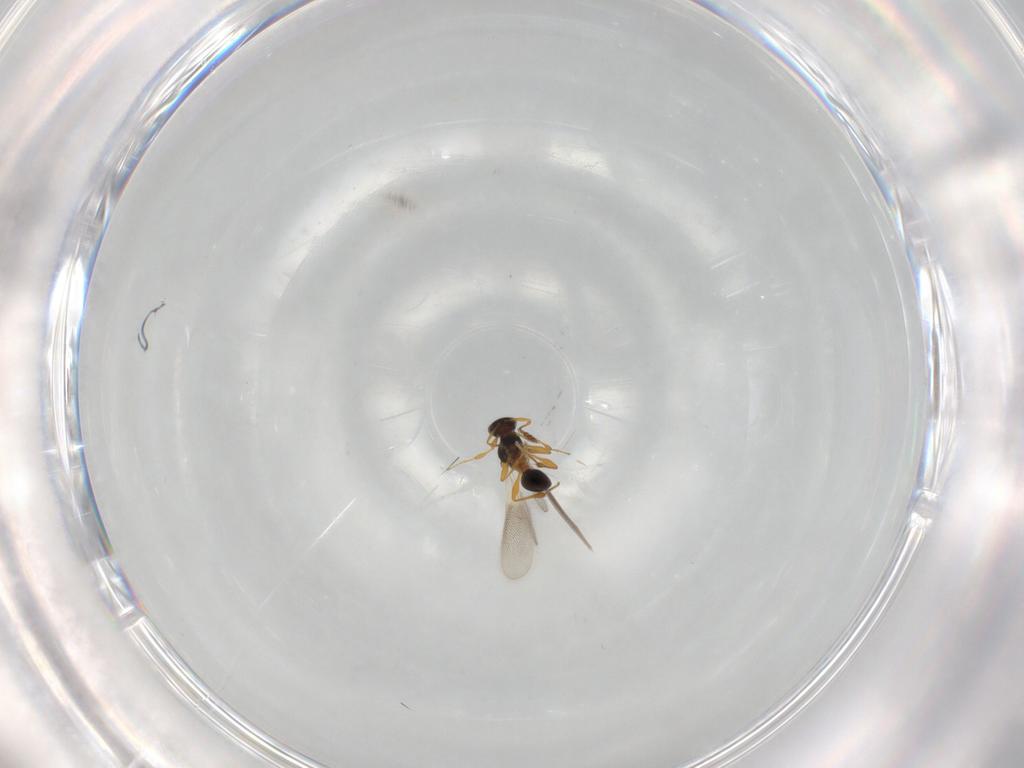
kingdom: Animalia
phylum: Arthropoda
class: Insecta
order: Hymenoptera
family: Platygastridae
